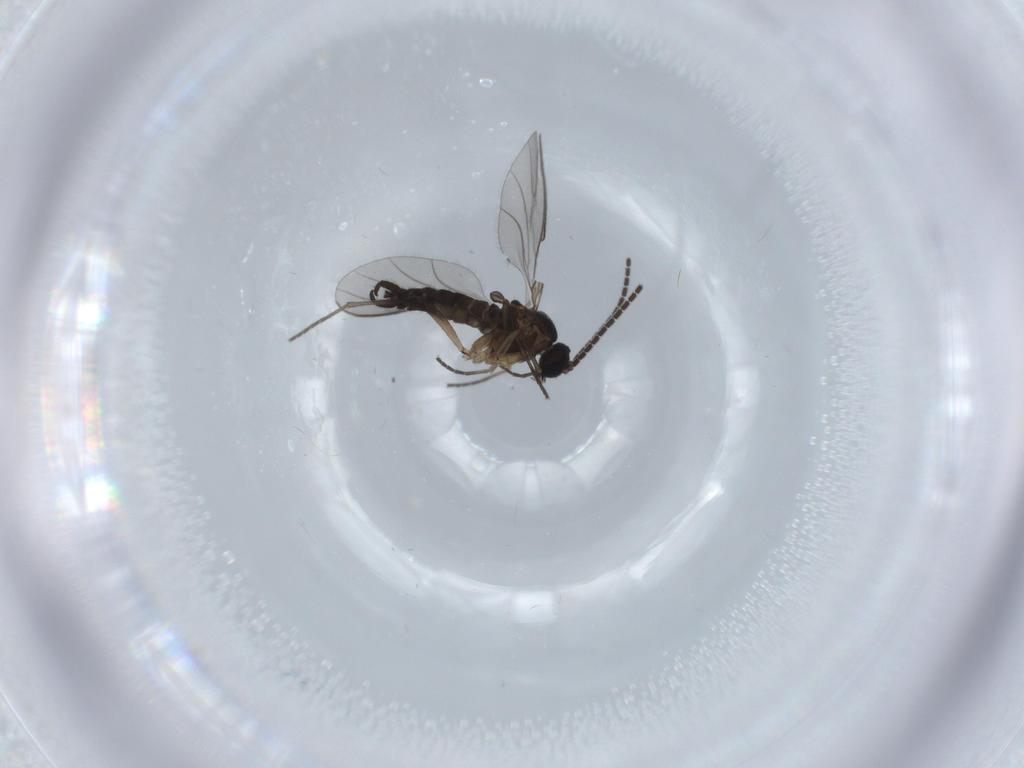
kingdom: Animalia
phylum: Arthropoda
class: Insecta
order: Diptera
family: Sciaridae
